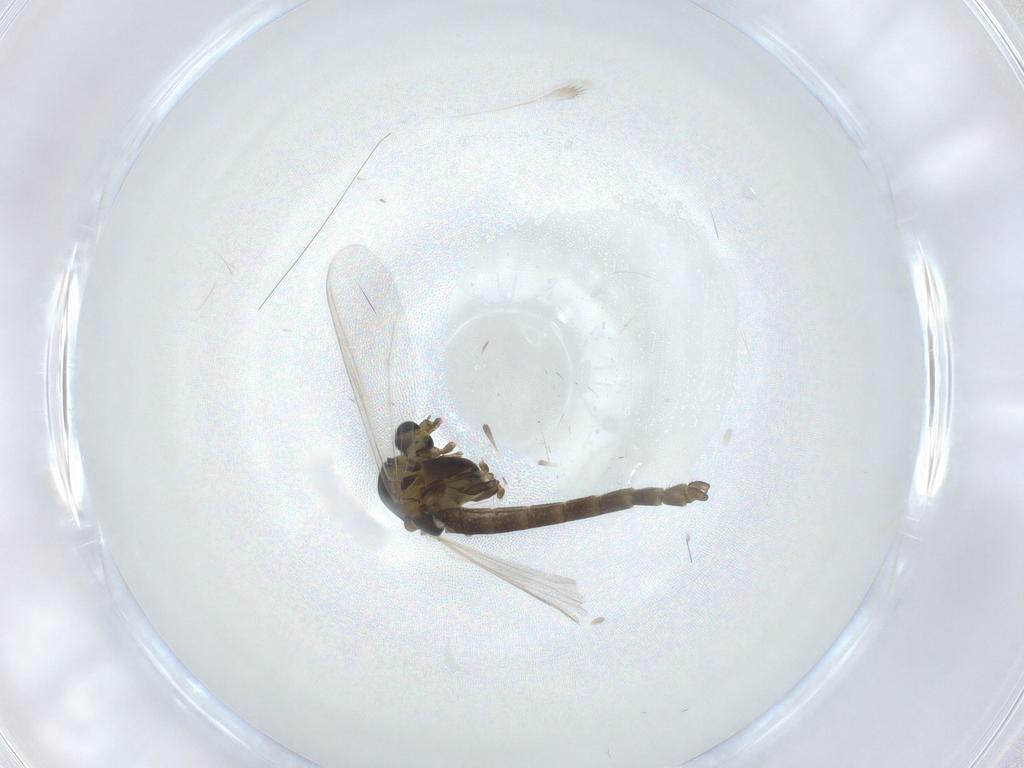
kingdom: Animalia
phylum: Arthropoda
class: Insecta
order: Diptera
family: Chironomidae
